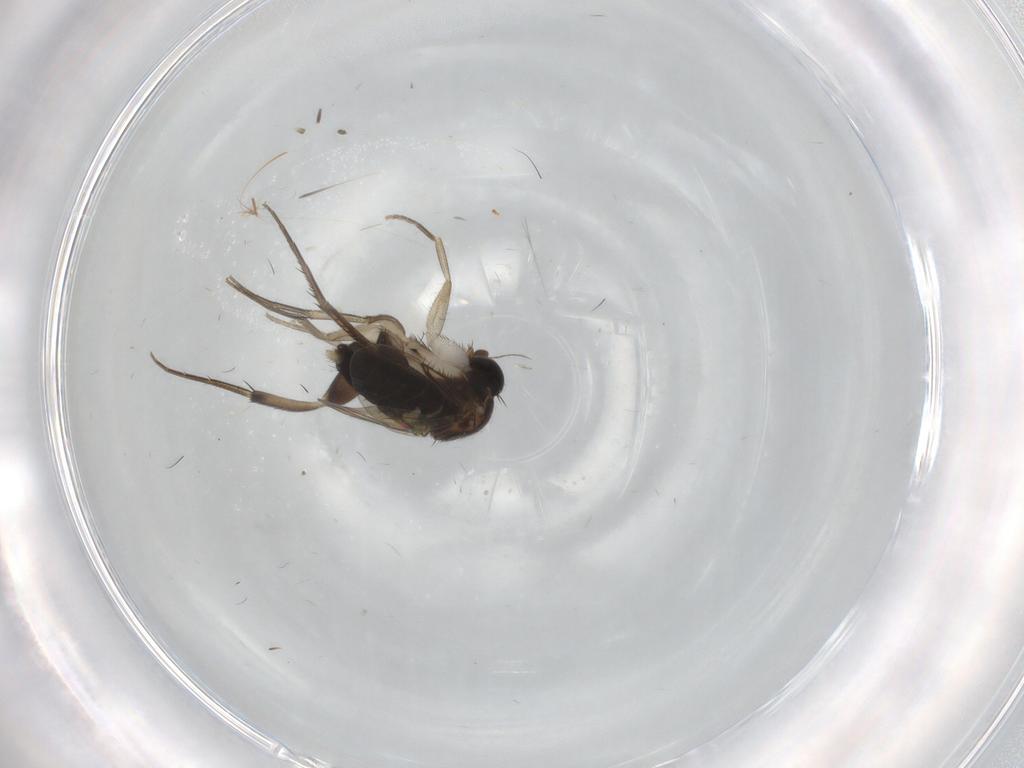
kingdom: Animalia
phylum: Arthropoda
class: Insecta
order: Diptera
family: Phoridae
